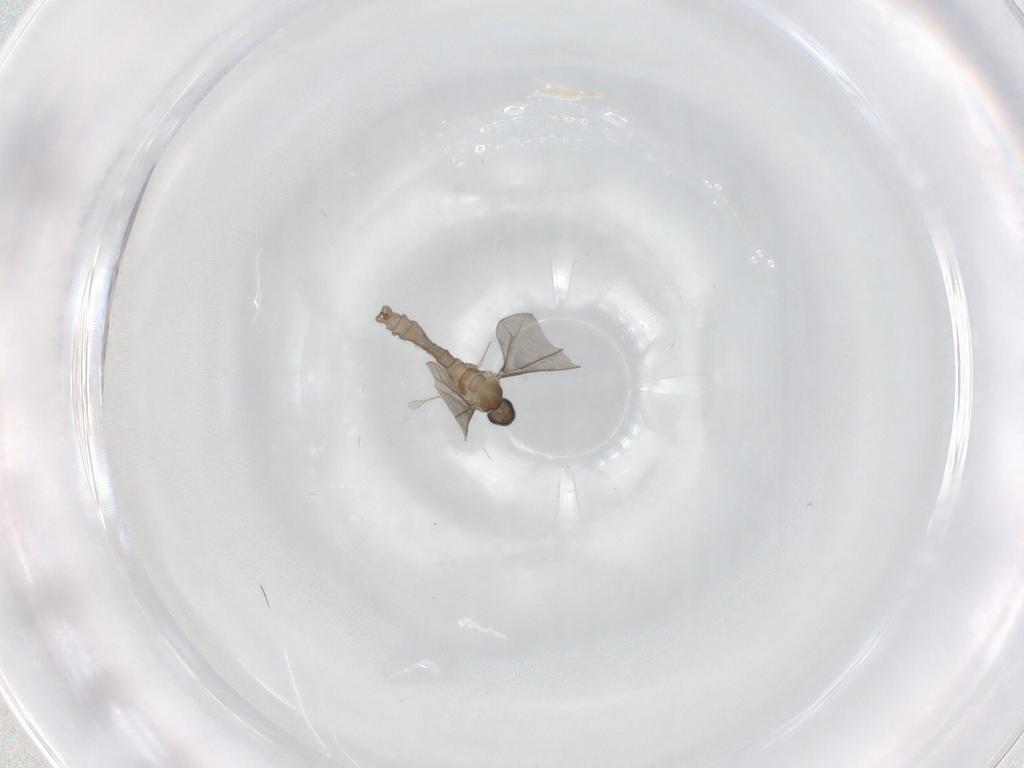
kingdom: Animalia
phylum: Arthropoda
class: Insecta
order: Diptera
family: Cecidomyiidae
